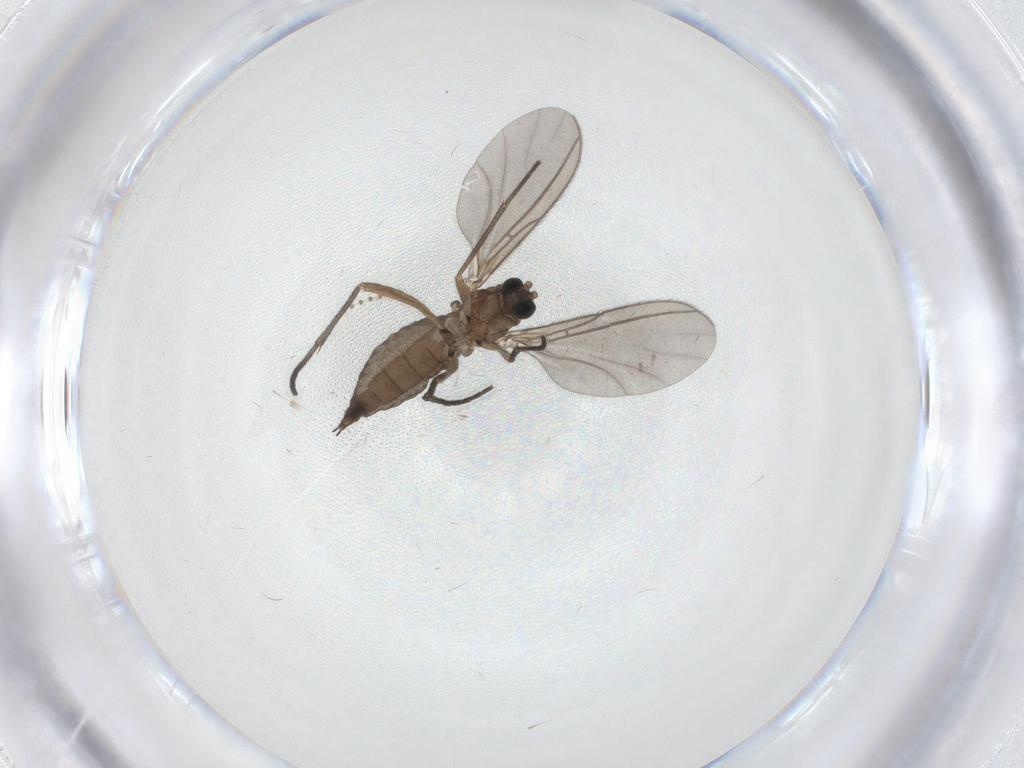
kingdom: Animalia
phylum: Arthropoda
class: Insecta
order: Diptera
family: Sciaridae
